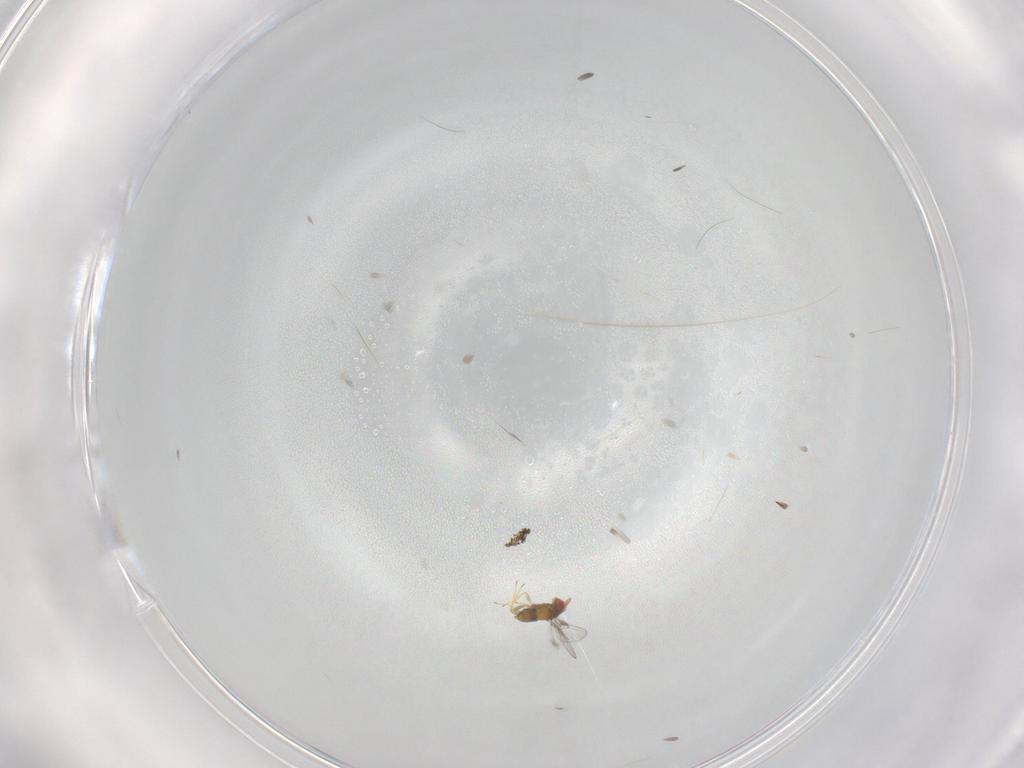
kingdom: Animalia
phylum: Arthropoda
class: Insecta
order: Hymenoptera
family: Trichogrammatidae
